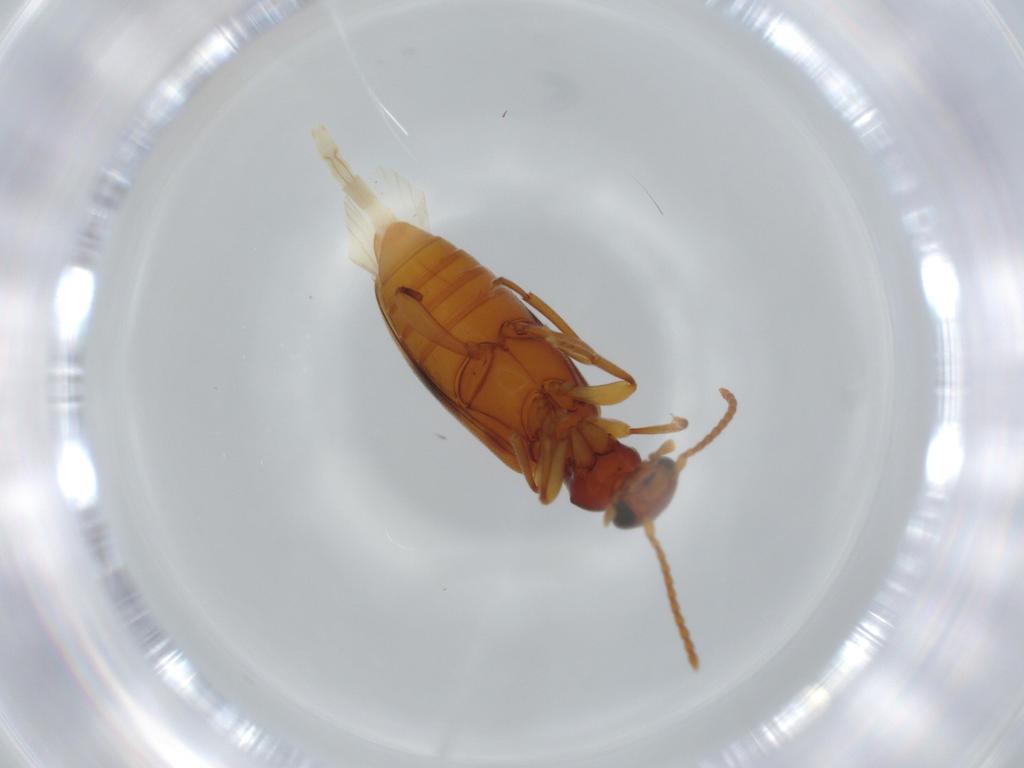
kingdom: Animalia
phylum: Arthropoda
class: Insecta
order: Coleoptera
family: Anthicidae
